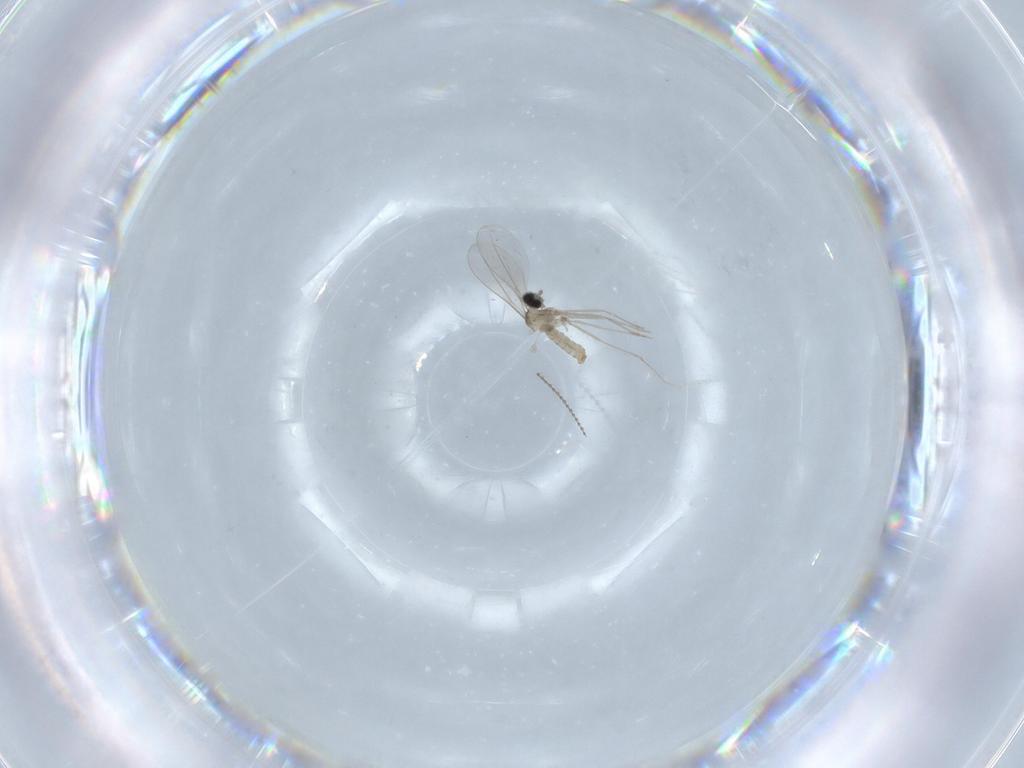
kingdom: Animalia
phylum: Arthropoda
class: Insecta
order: Diptera
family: Cecidomyiidae
